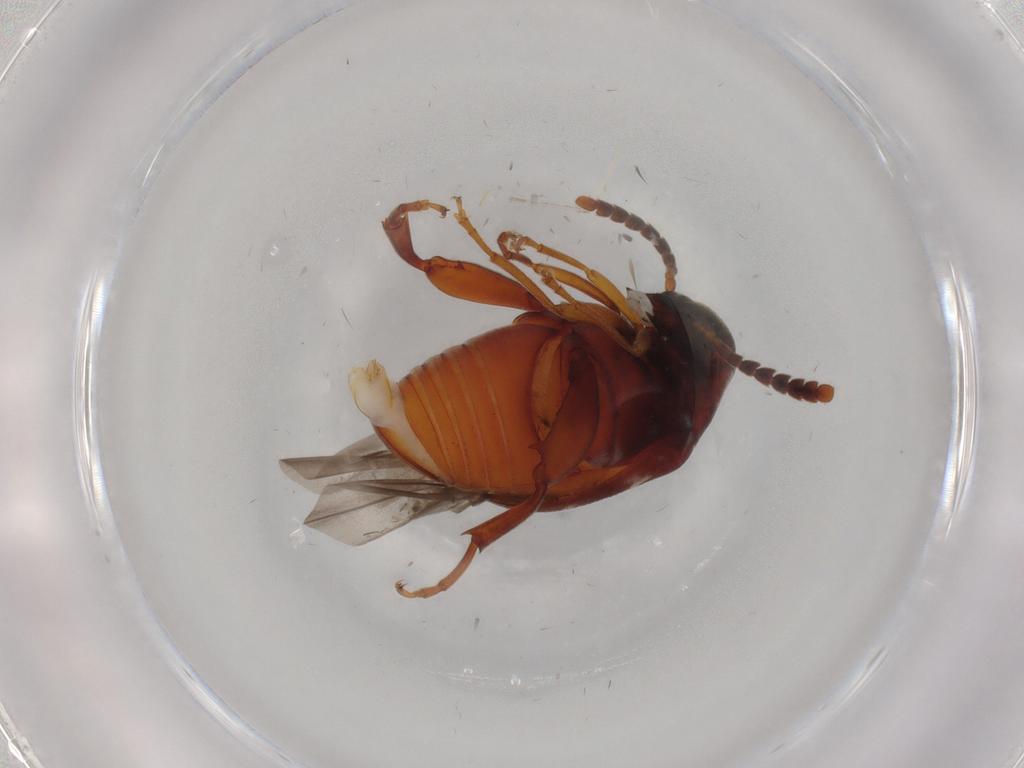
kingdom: Animalia
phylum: Arthropoda
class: Insecta
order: Coleoptera
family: Chrysomelidae
